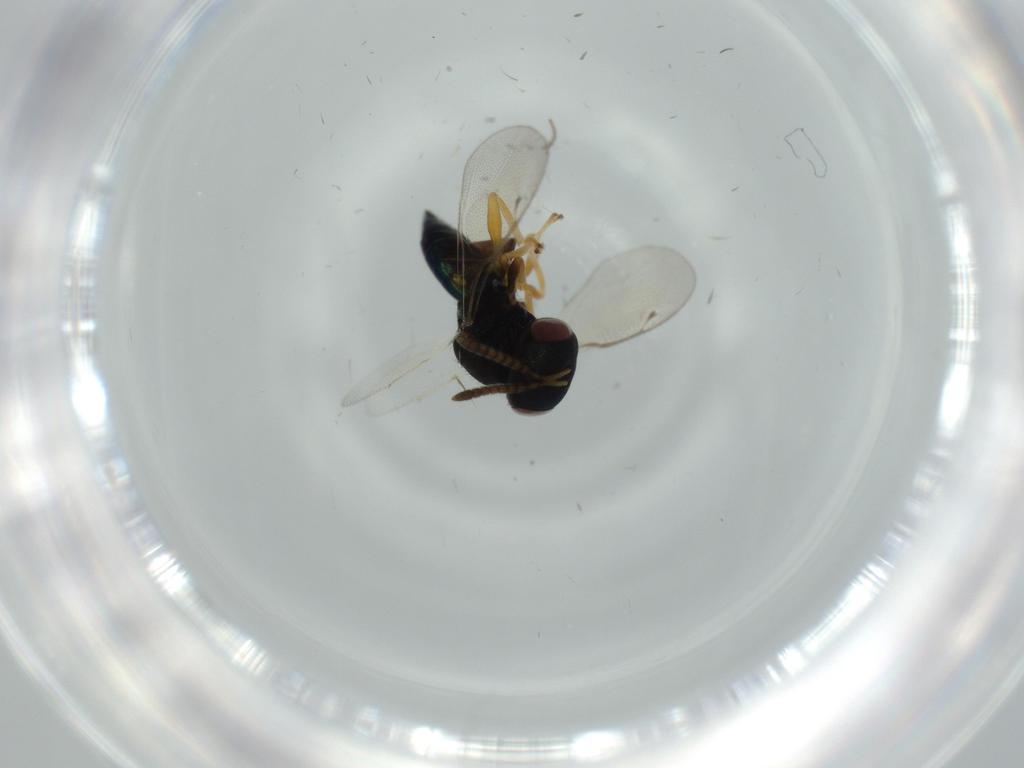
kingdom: Animalia
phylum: Arthropoda
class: Insecta
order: Hymenoptera
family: Pteromalidae
